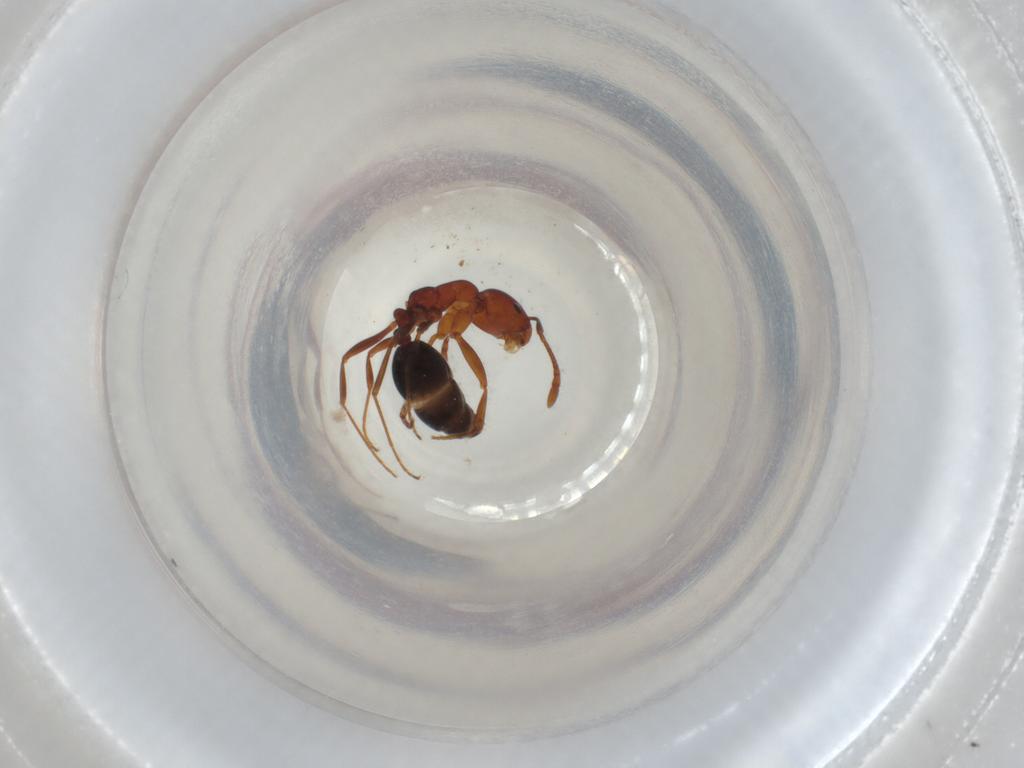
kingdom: Animalia
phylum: Arthropoda
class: Insecta
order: Hymenoptera
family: Formicidae
